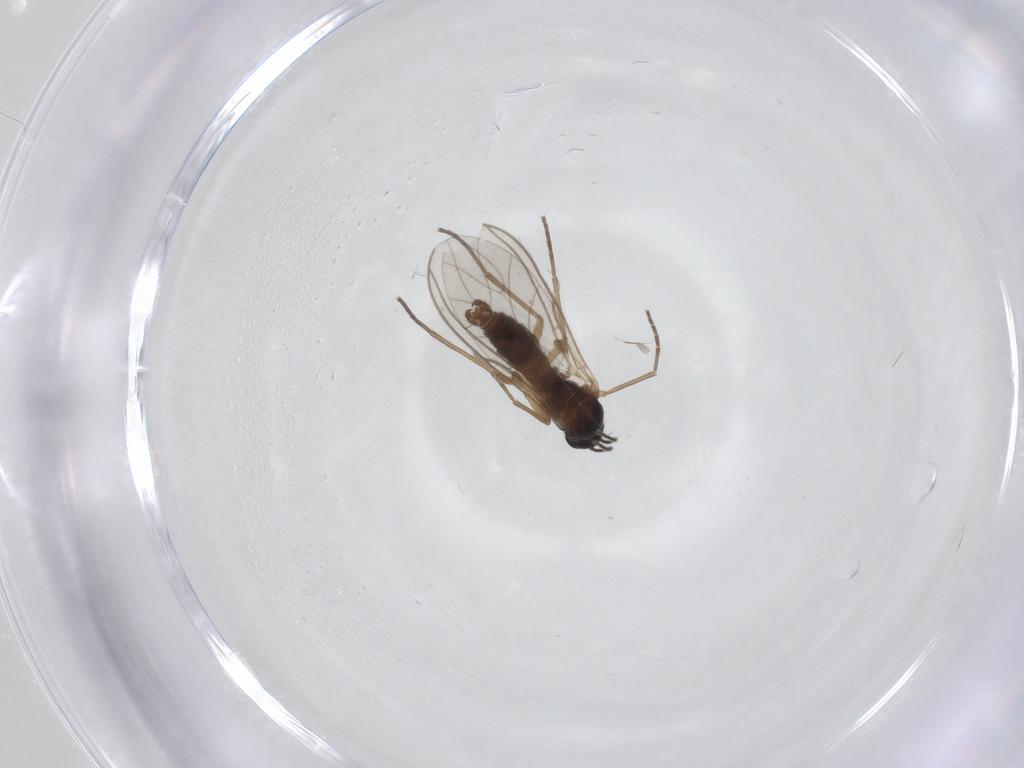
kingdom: Animalia
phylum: Arthropoda
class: Insecta
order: Diptera
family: Sciaridae
